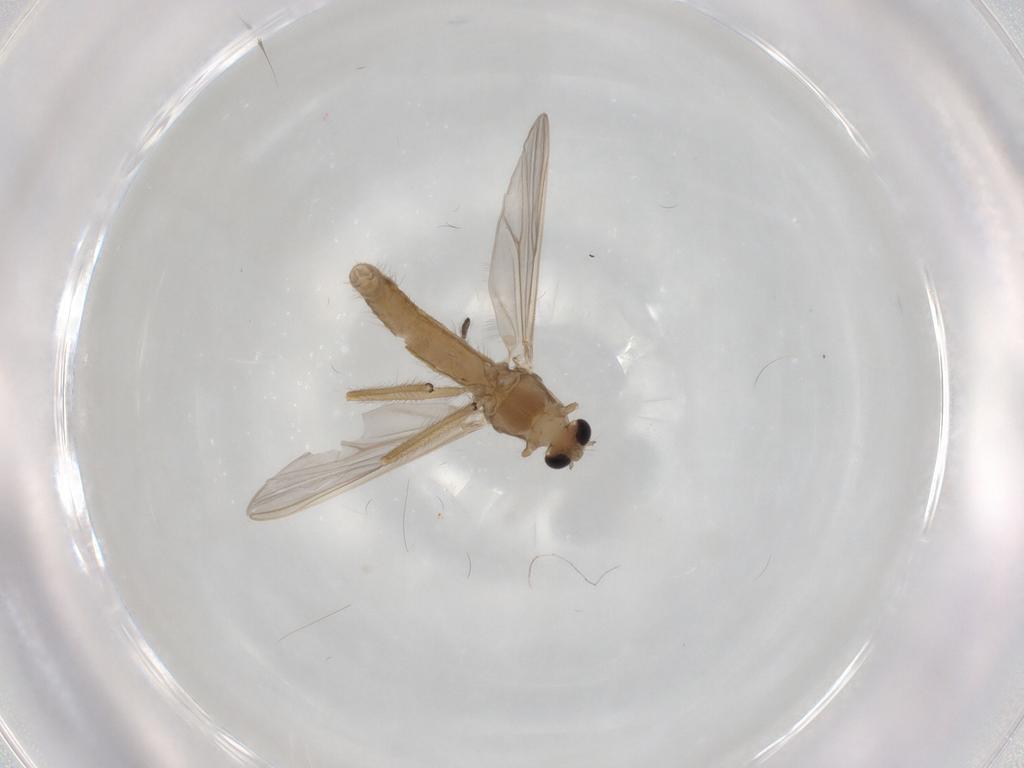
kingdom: Animalia
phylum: Arthropoda
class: Insecta
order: Diptera
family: Chironomidae
